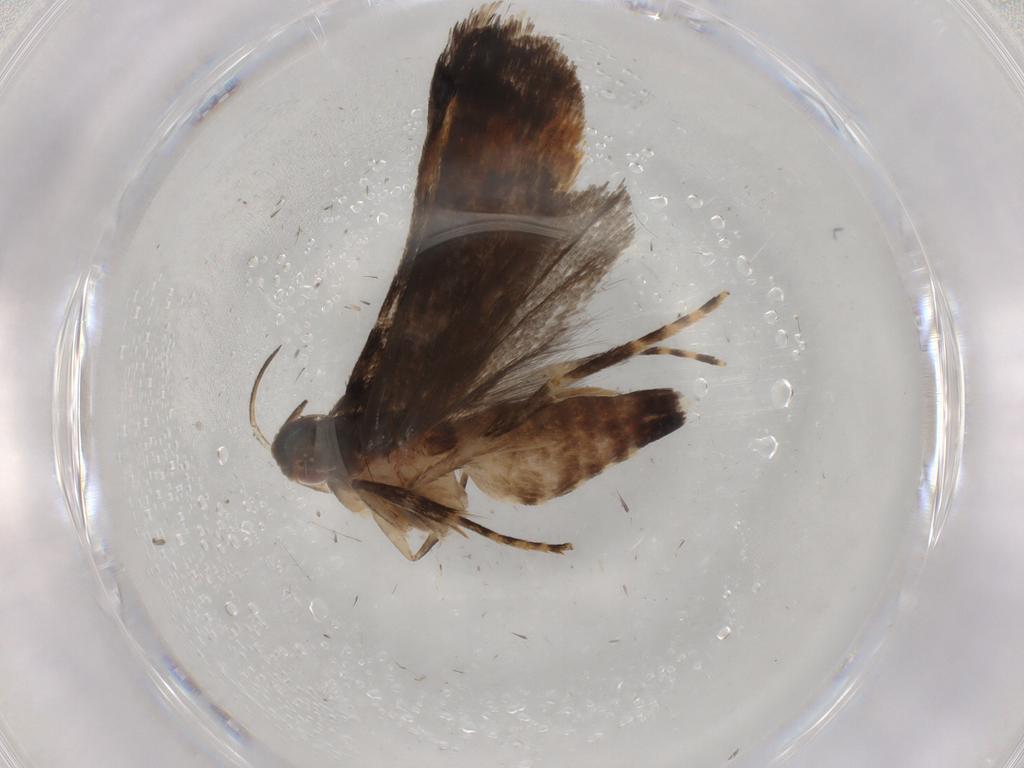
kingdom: Animalia
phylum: Arthropoda
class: Insecta
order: Lepidoptera
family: Gelechiidae
